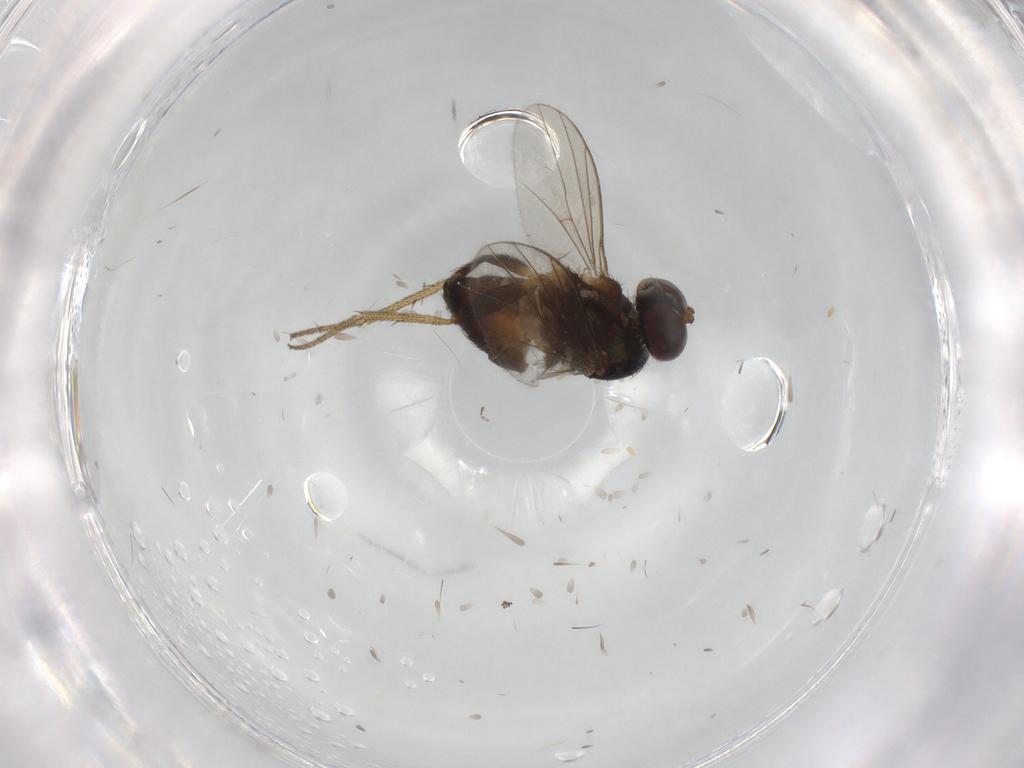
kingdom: Animalia
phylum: Arthropoda
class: Insecta
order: Diptera
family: Dolichopodidae
